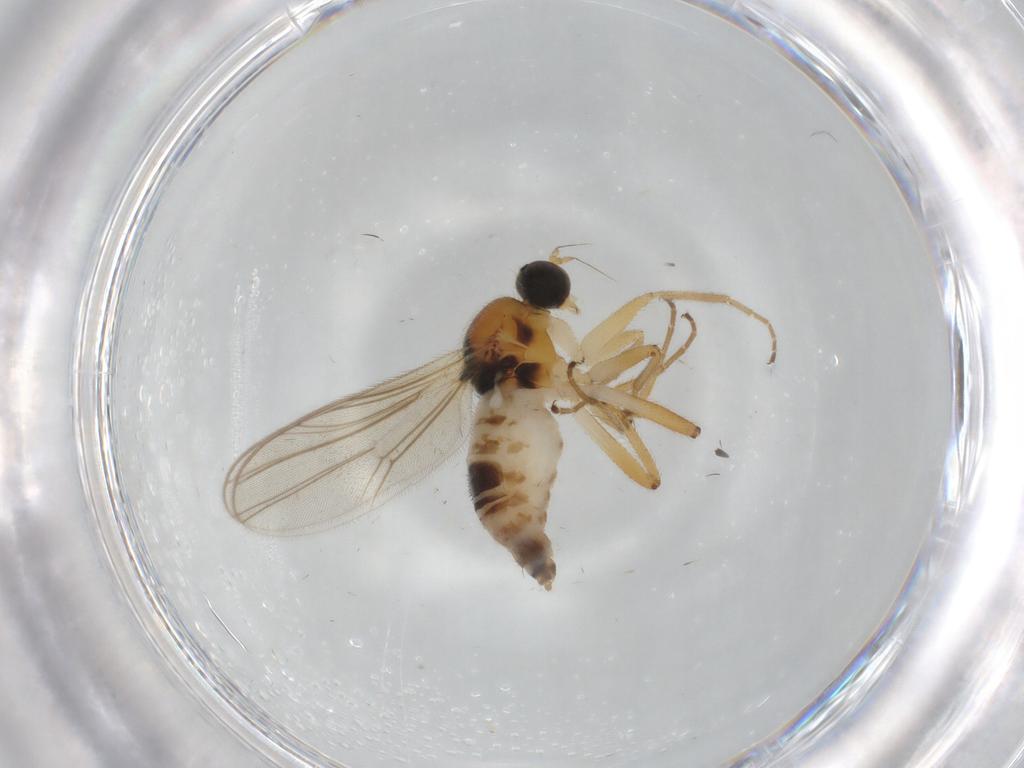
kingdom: Animalia
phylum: Arthropoda
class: Insecta
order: Diptera
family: Hybotidae
